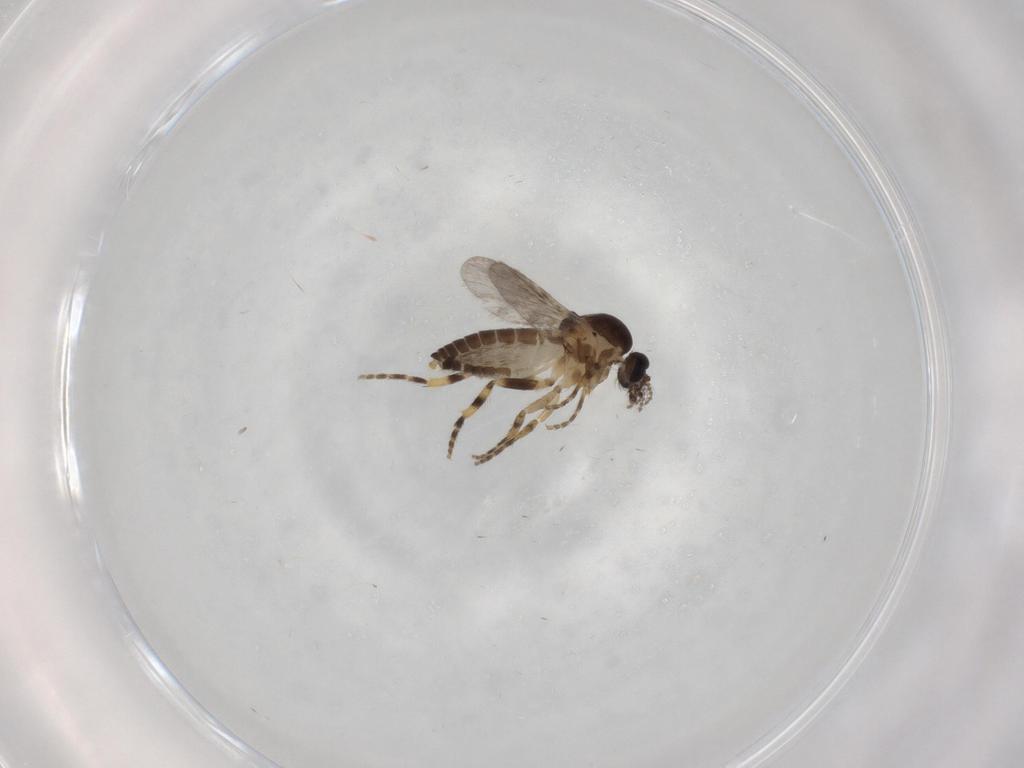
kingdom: Animalia
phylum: Arthropoda
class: Insecta
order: Diptera
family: Cecidomyiidae
